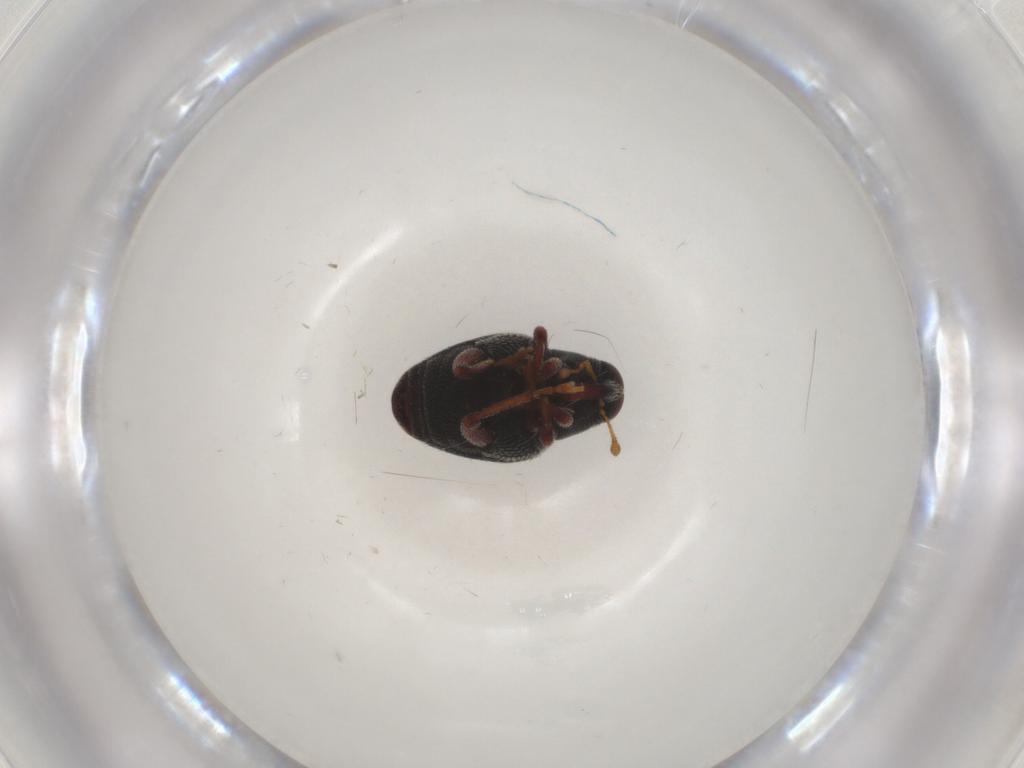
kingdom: Animalia
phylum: Arthropoda
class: Insecta
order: Coleoptera
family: Curculionidae
